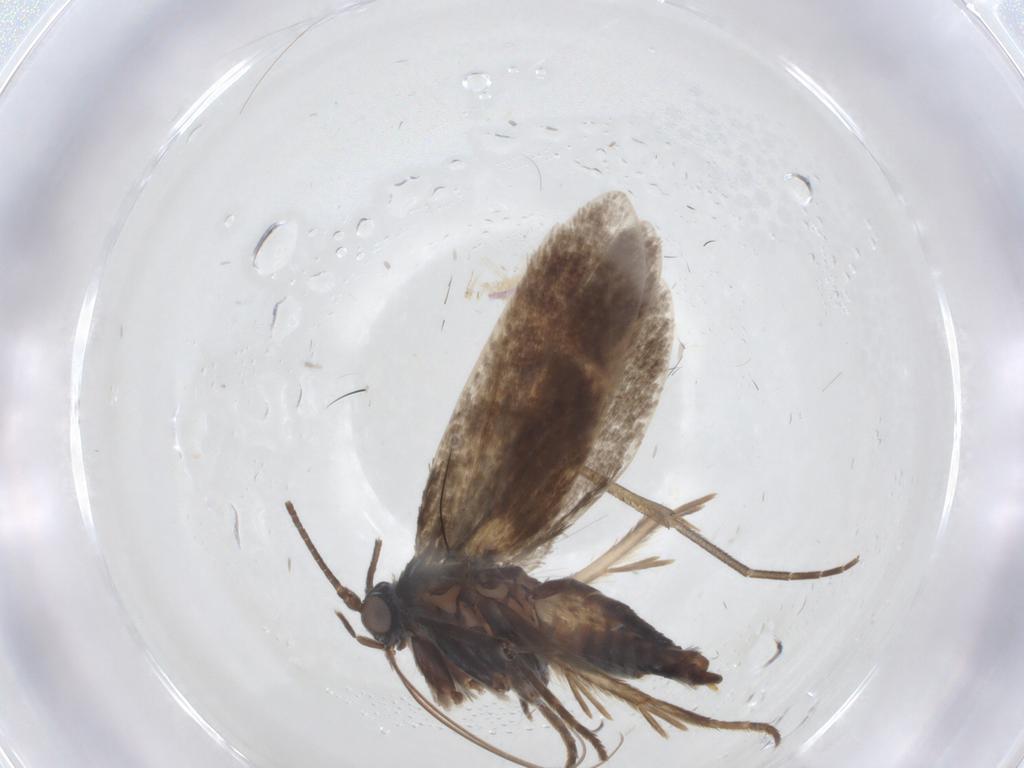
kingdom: Animalia
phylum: Arthropoda
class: Insecta
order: Lepidoptera
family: Adelidae
